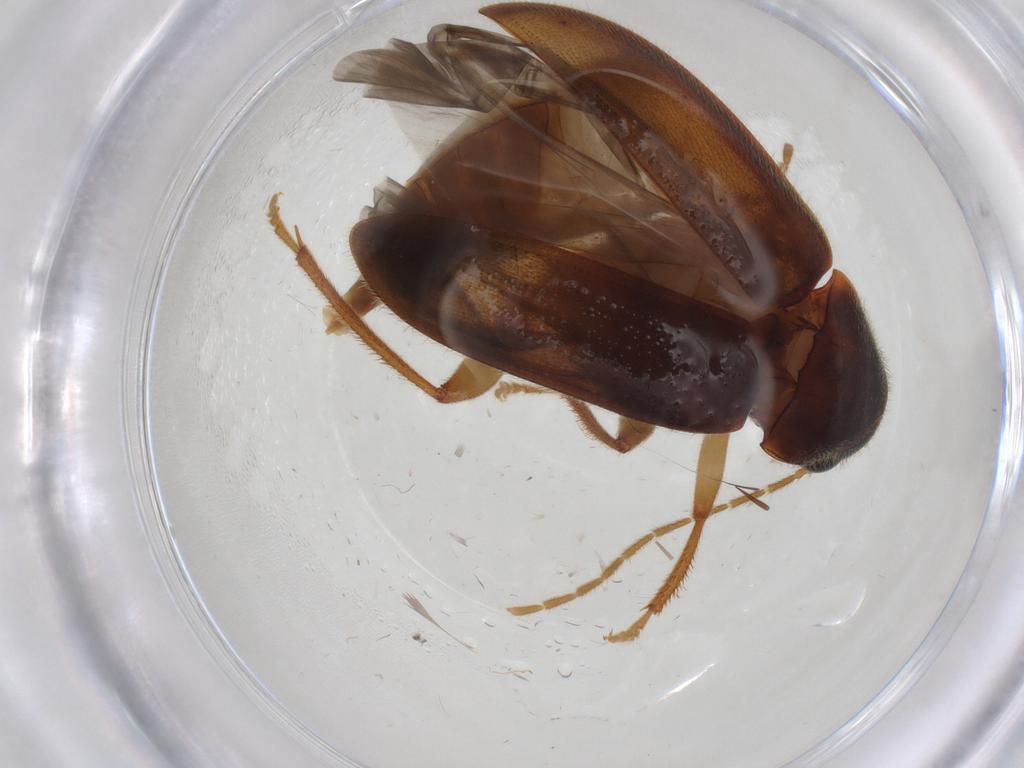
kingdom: Animalia
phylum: Arthropoda
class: Insecta
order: Coleoptera
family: Ptilodactylidae
